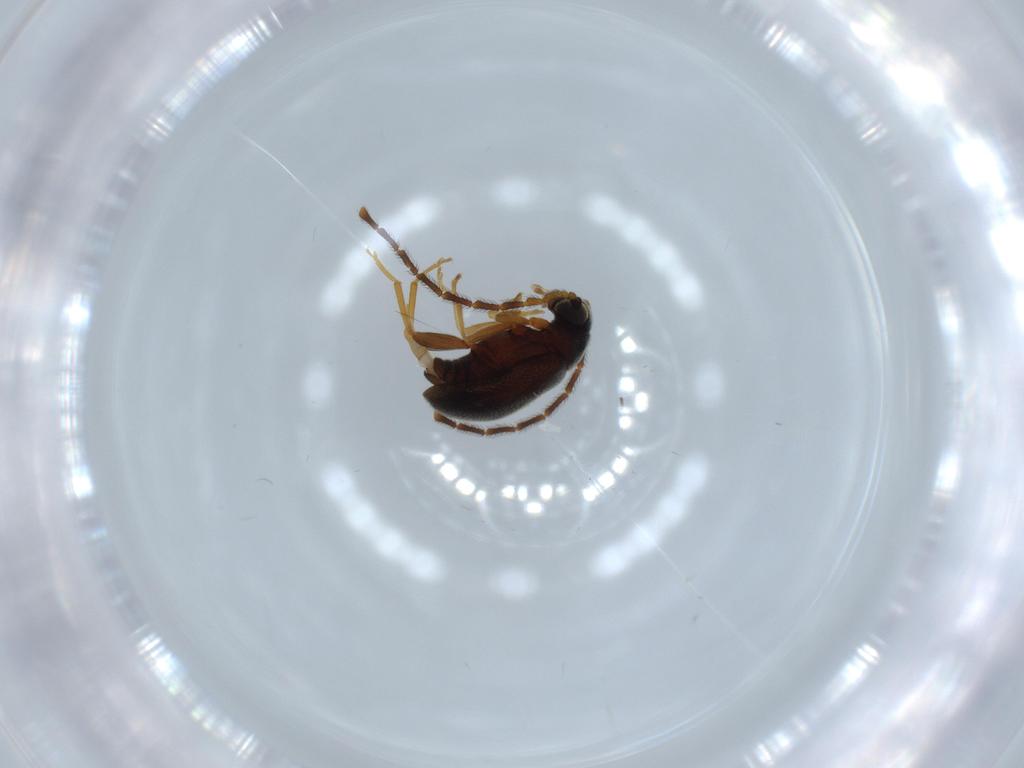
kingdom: Animalia
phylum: Arthropoda
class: Insecta
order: Coleoptera
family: Aderidae
